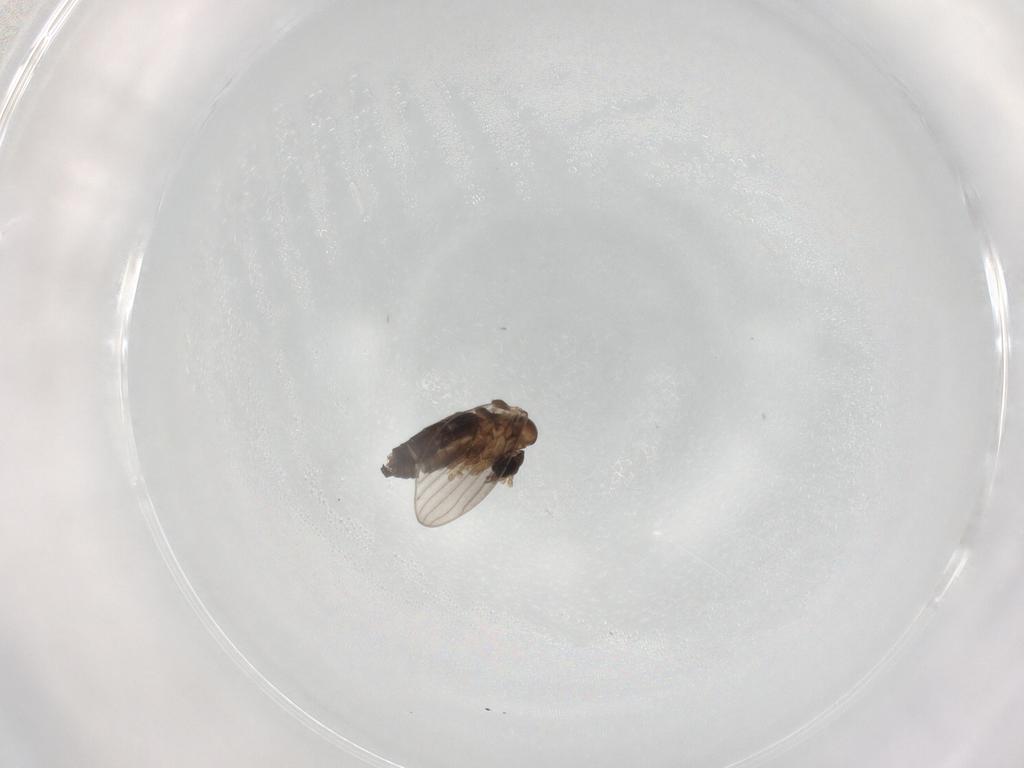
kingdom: Animalia
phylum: Arthropoda
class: Insecta
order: Diptera
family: Psychodidae
